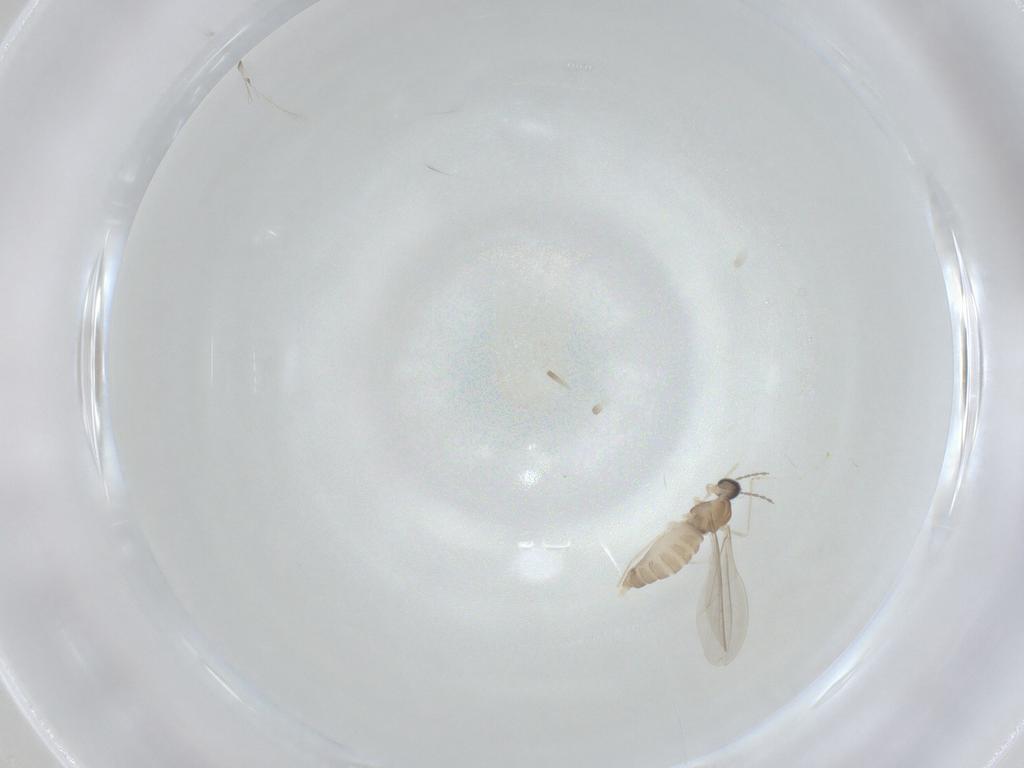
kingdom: Animalia
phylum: Arthropoda
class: Insecta
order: Diptera
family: Cecidomyiidae
